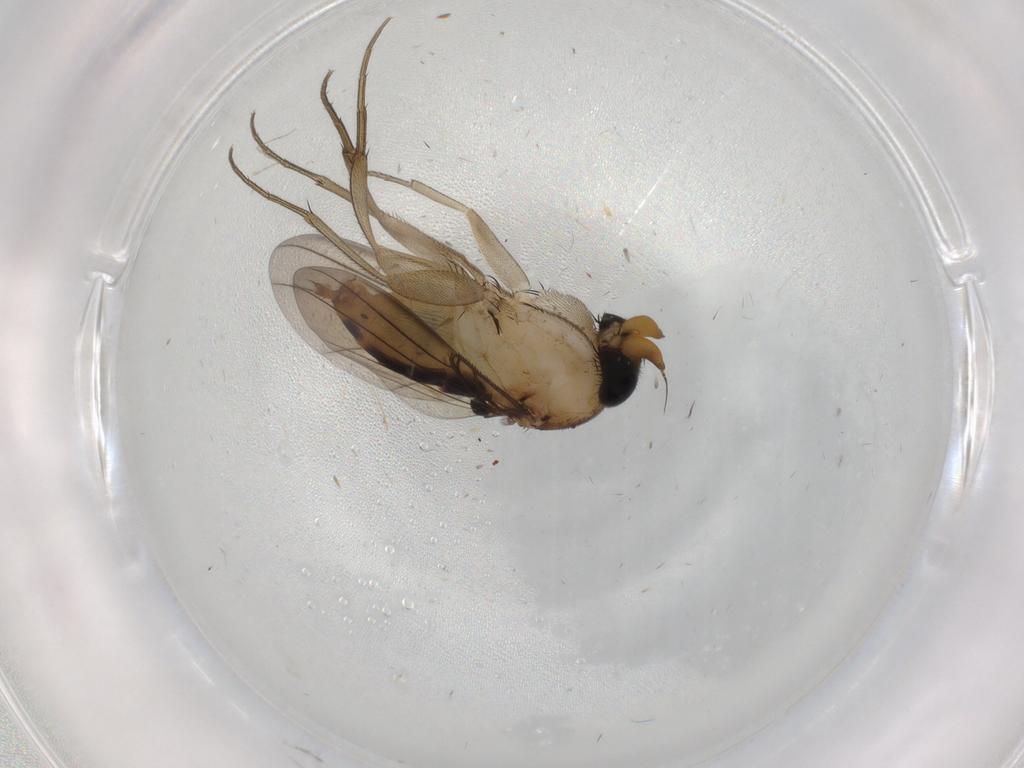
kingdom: Animalia
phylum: Arthropoda
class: Insecta
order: Diptera
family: Phoridae
